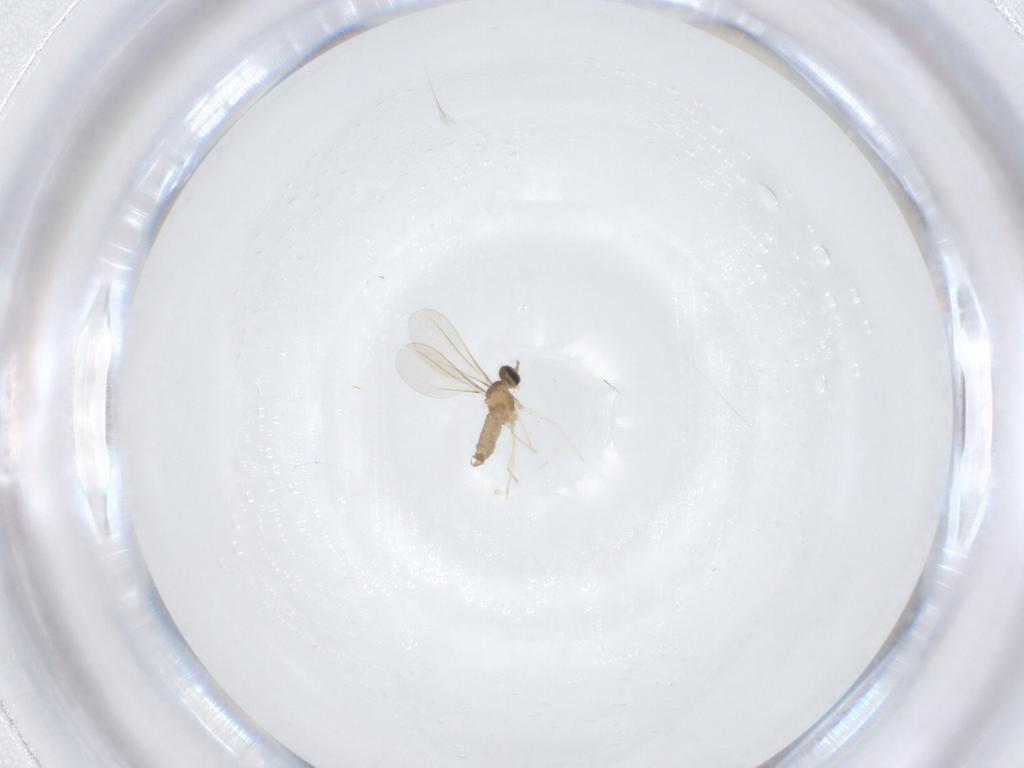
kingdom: Animalia
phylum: Arthropoda
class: Insecta
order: Diptera
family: Cecidomyiidae
